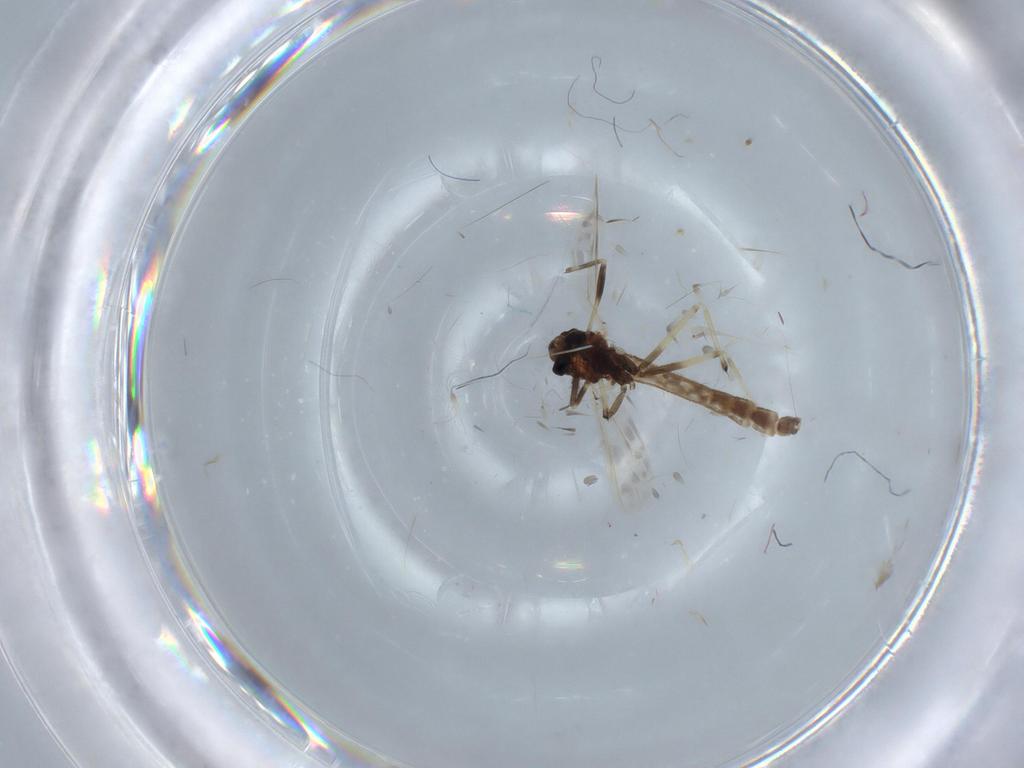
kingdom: Animalia
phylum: Arthropoda
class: Insecta
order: Diptera
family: Chironomidae
